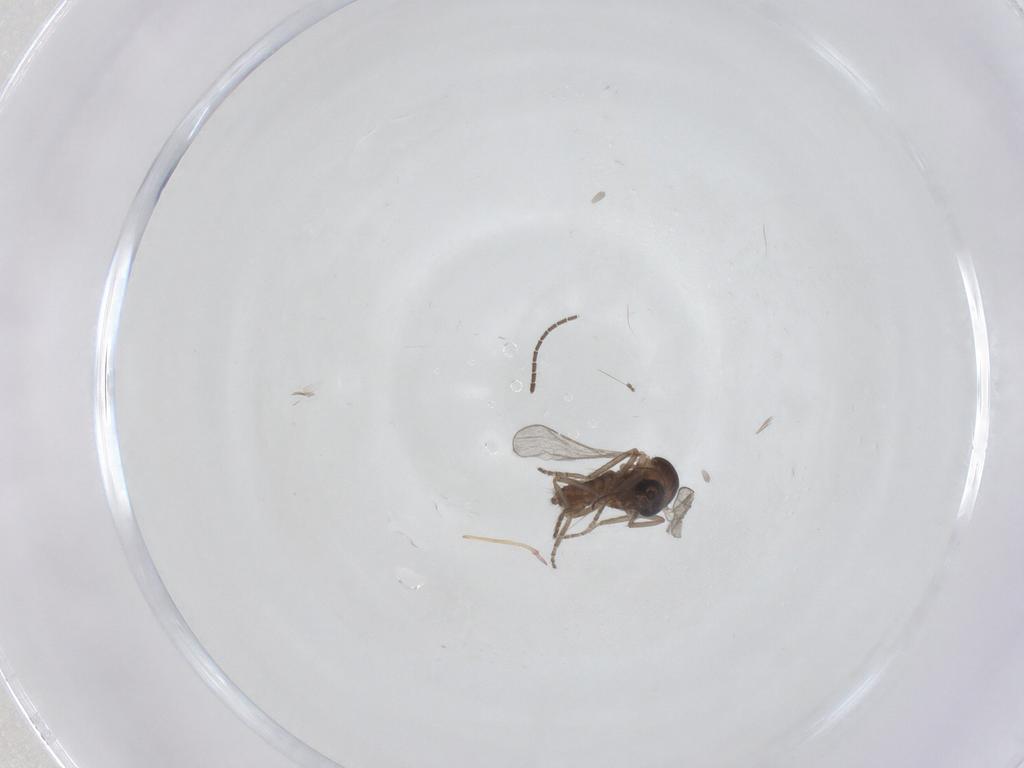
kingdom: Animalia
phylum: Arthropoda
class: Insecta
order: Diptera
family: Ceratopogonidae
